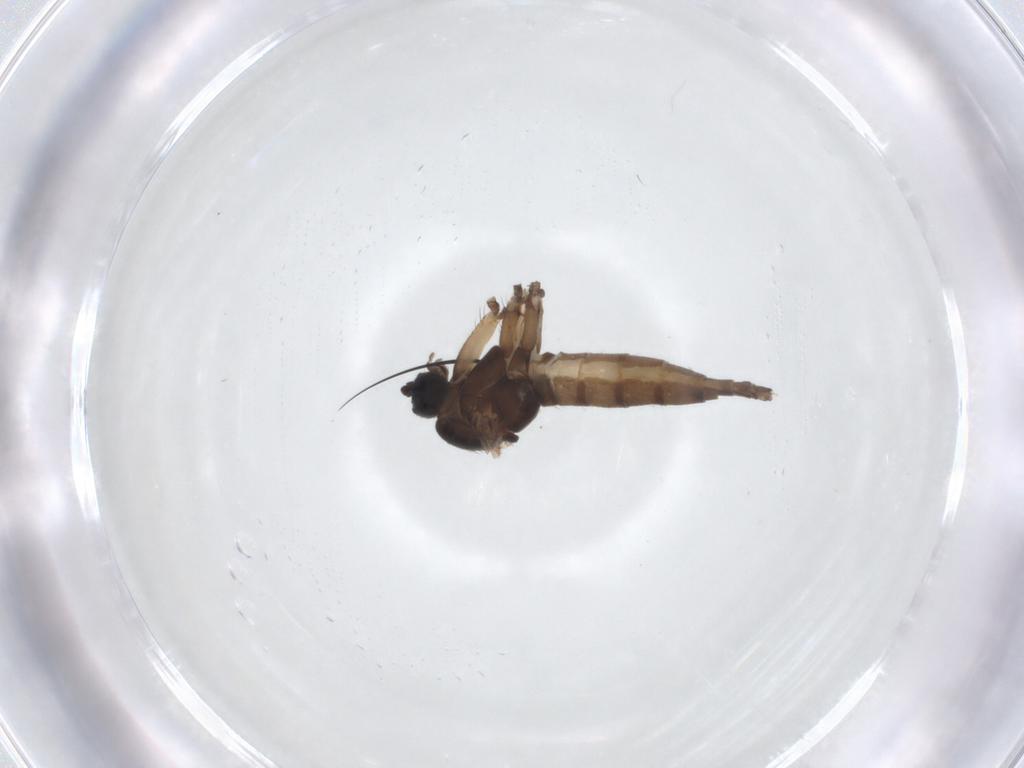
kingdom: Animalia
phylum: Arthropoda
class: Insecta
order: Diptera
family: Sciaridae
